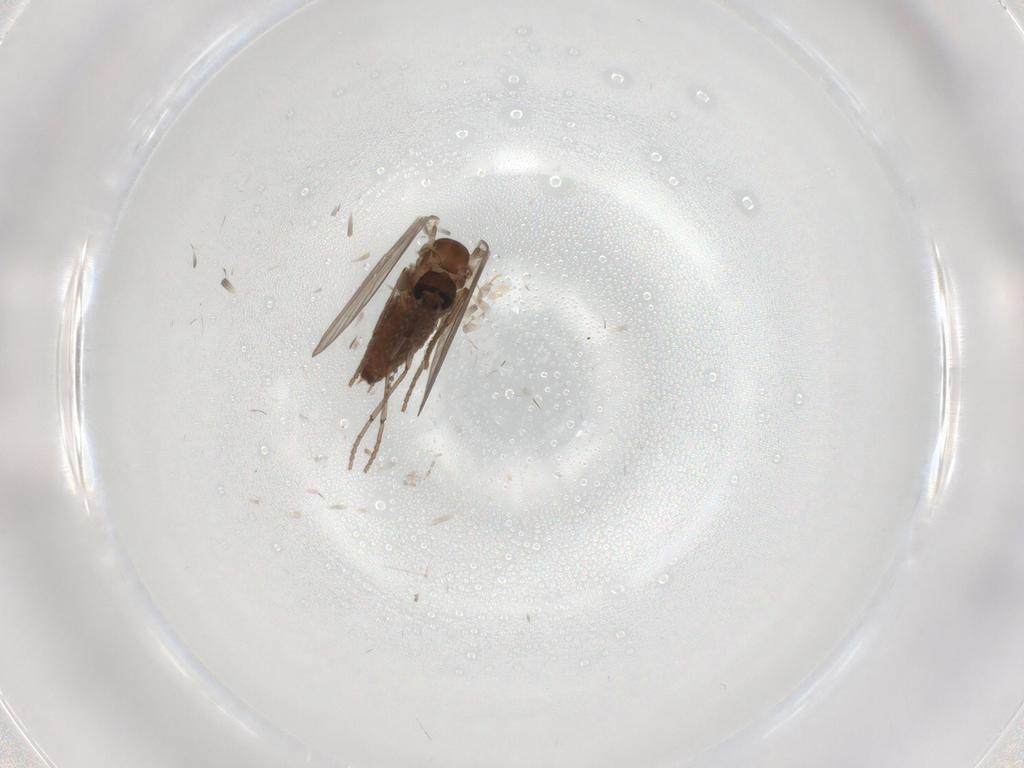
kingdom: Animalia
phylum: Arthropoda
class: Insecta
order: Diptera
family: Psychodidae
